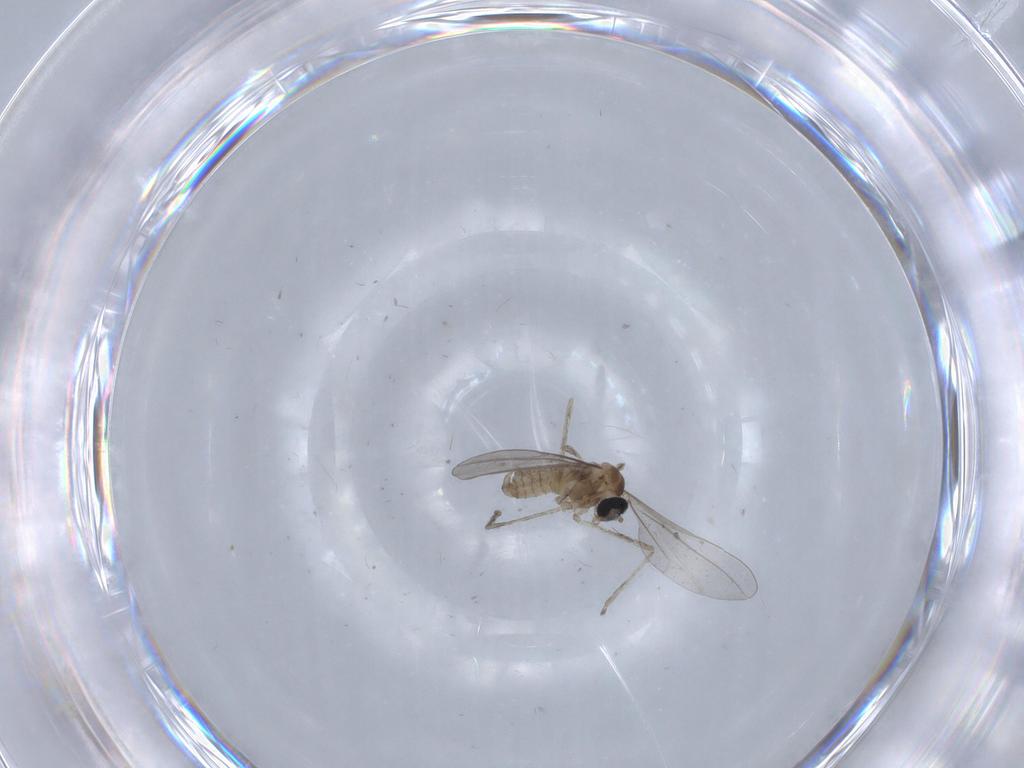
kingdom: Animalia
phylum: Arthropoda
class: Insecta
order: Diptera
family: Cecidomyiidae
